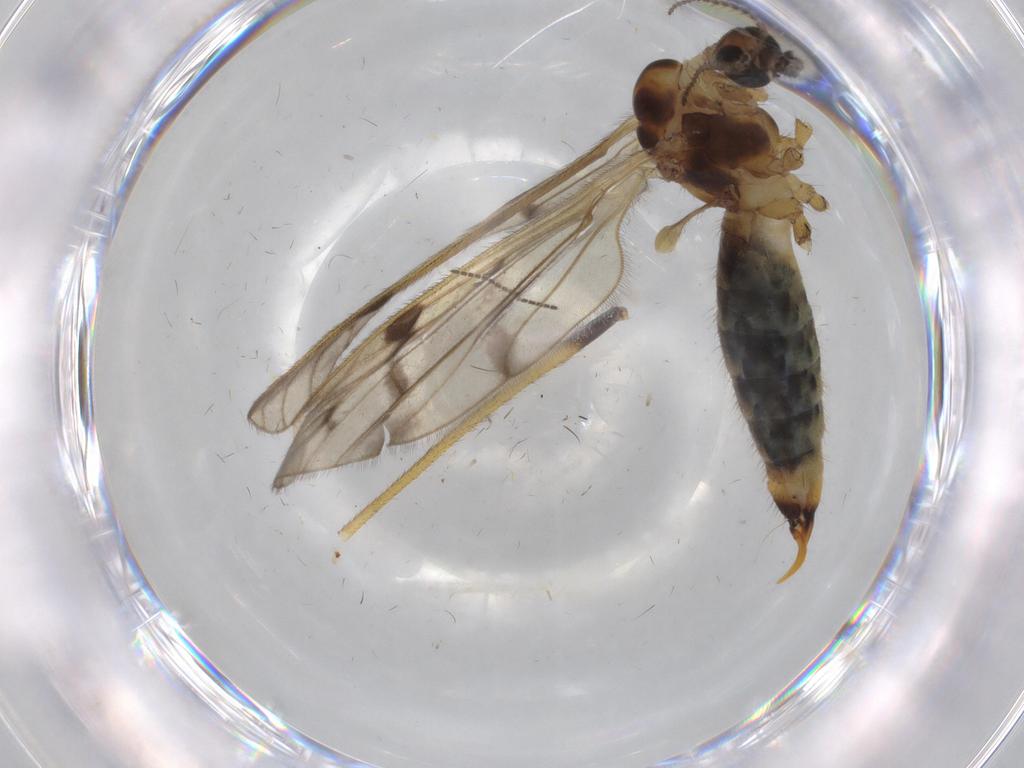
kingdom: Animalia
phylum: Arthropoda
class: Insecta
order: Diptera
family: Limoniidae
